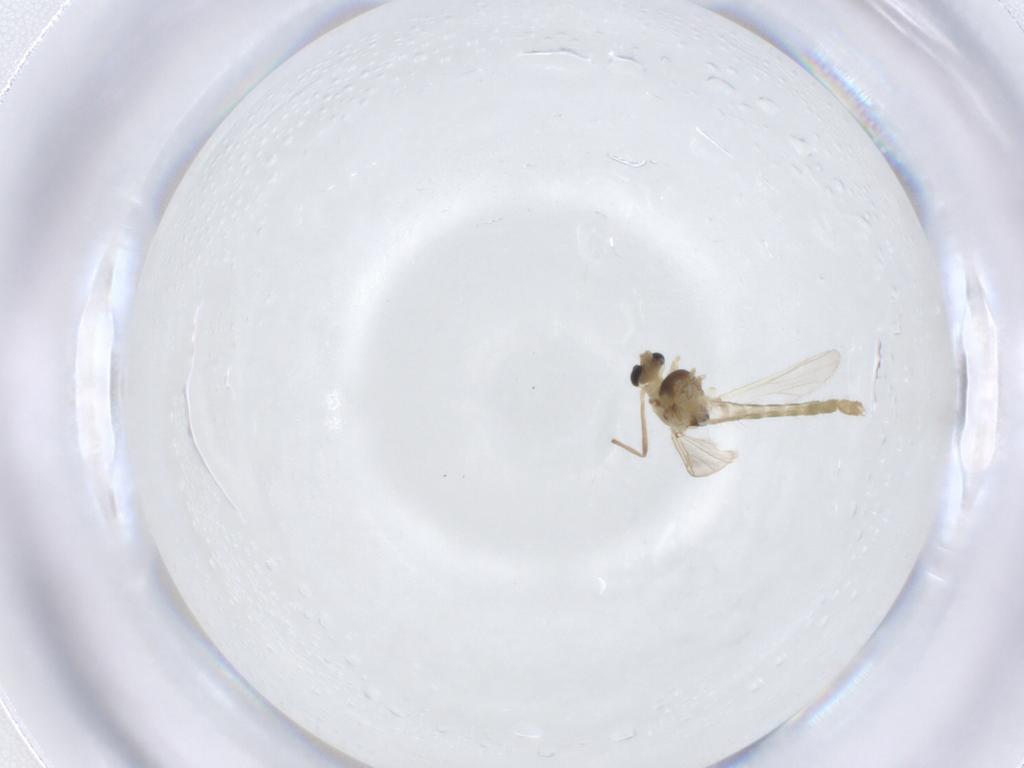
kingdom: Animalia
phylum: Arthropoda
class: Insecta
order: Diptera
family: Chironomidae
